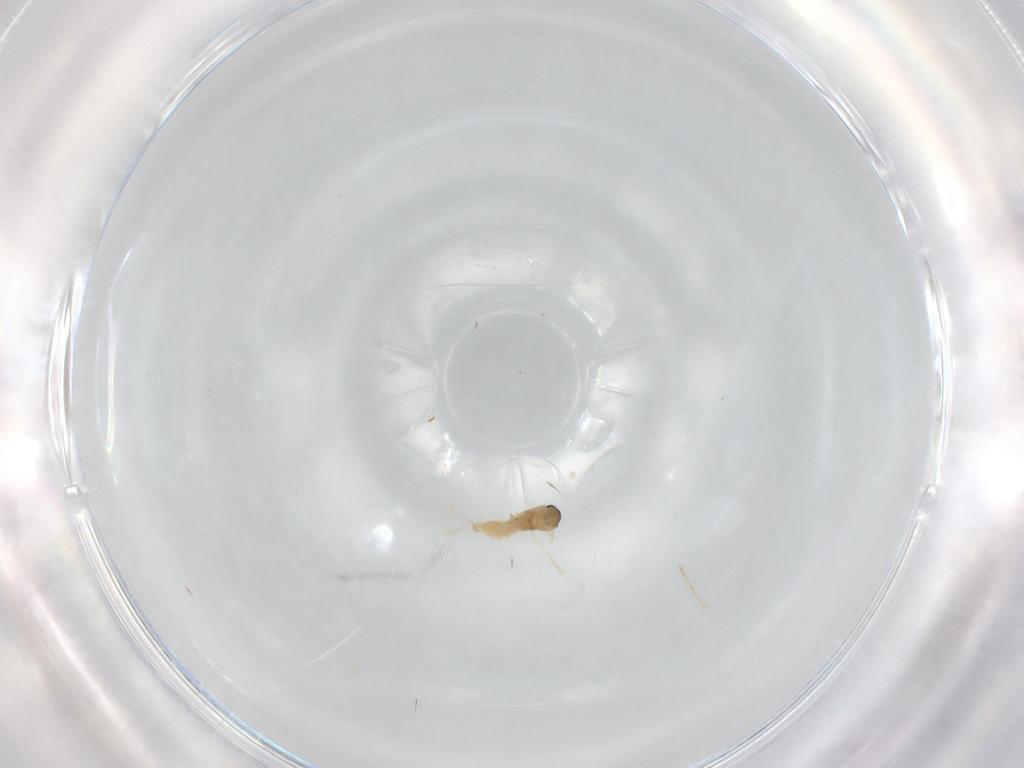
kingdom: Animalia
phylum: Arthropoda
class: Insecta
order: Diptera
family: Cecidomyiidae
